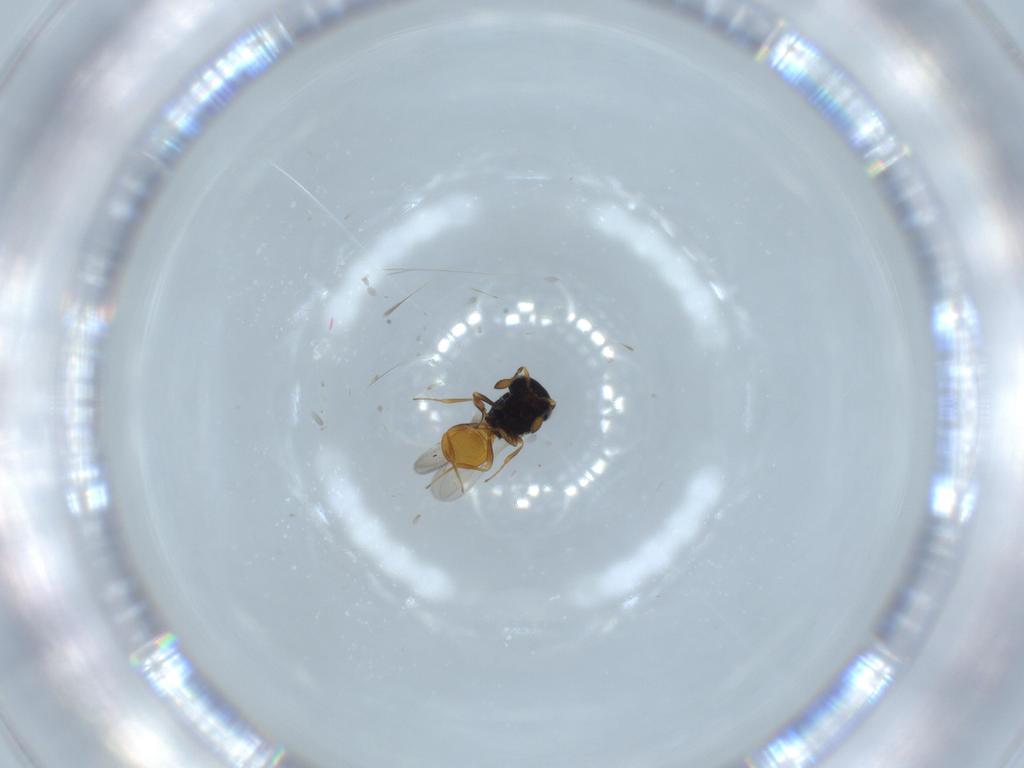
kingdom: Animalia
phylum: Arthropoda
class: Insecta
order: Hymenoptera
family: Scelionidae
